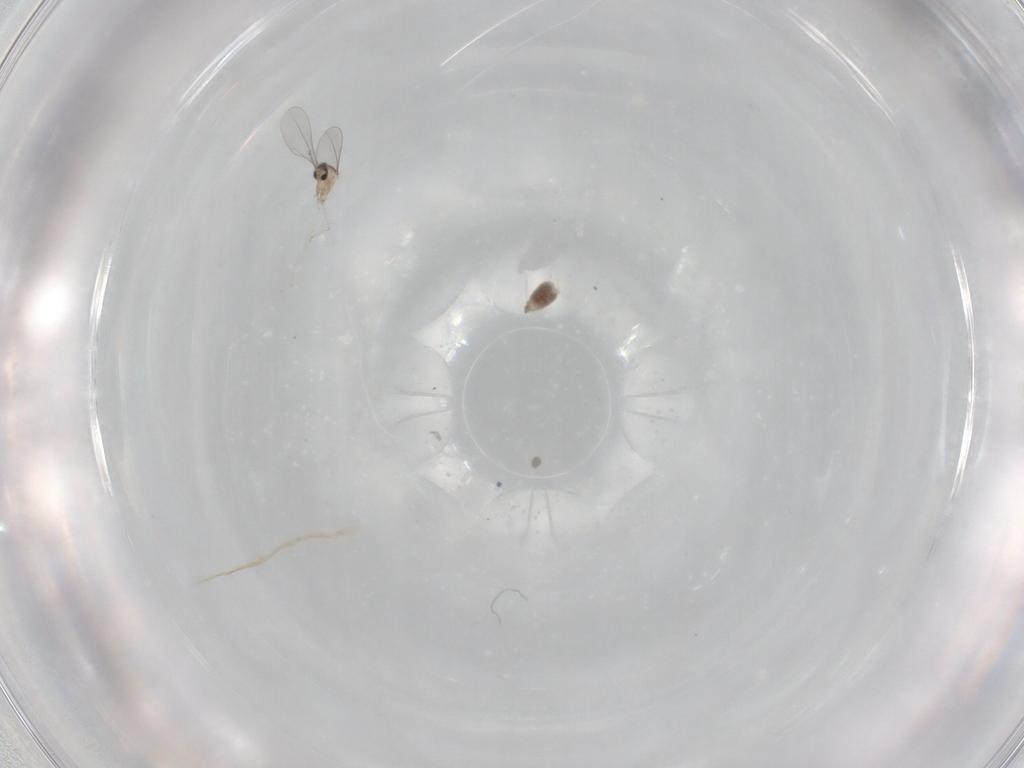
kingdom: Animalia
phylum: Arthropoda
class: Insecta
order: Diptera
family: Cecidomyiidae
